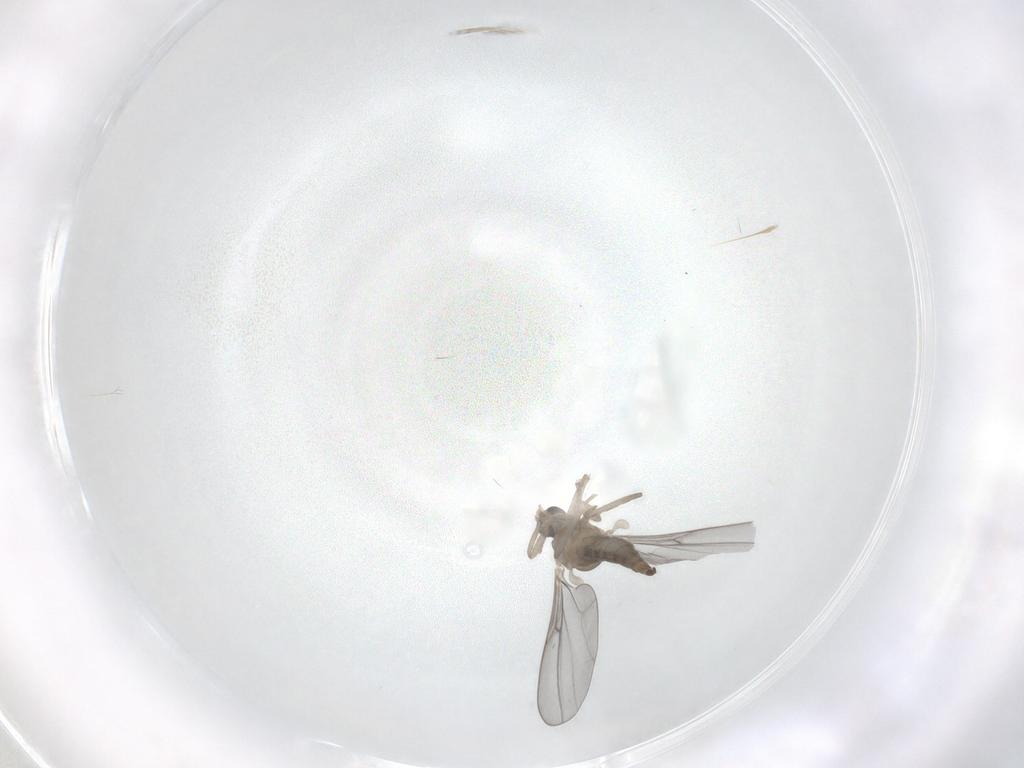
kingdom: Animalia
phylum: Arthropoda
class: Insecta
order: Diptera
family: Cecidomyiidae
